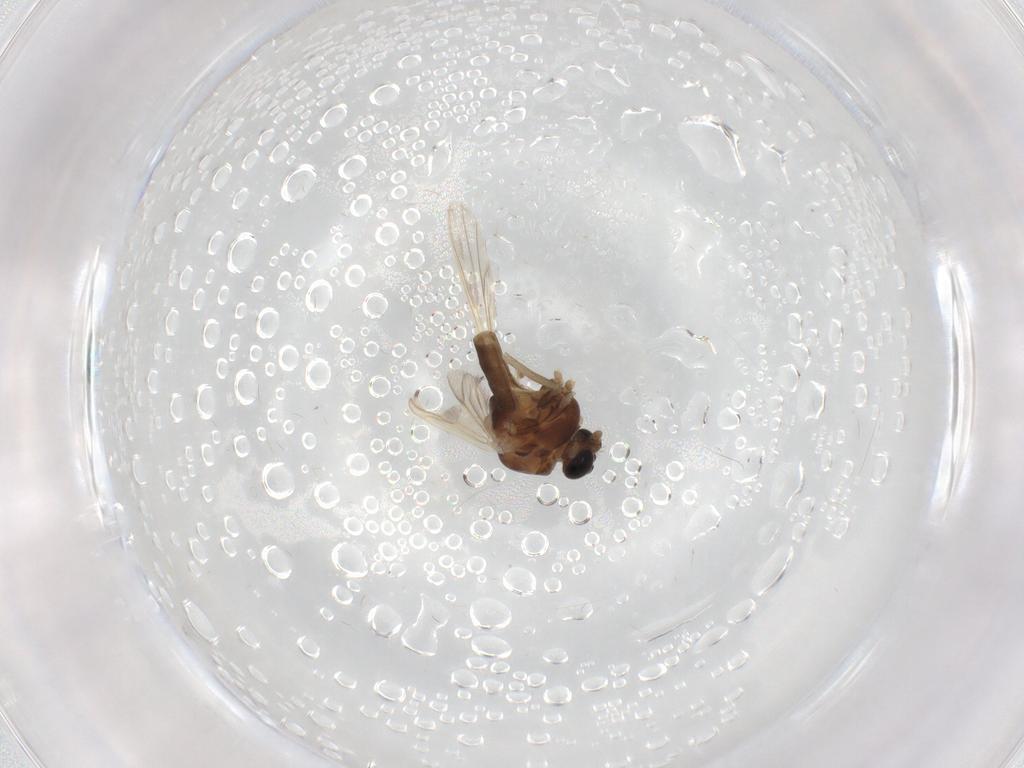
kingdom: Animalia
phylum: Arthropoda
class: Insecta
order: Diptera
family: Chironomidae
